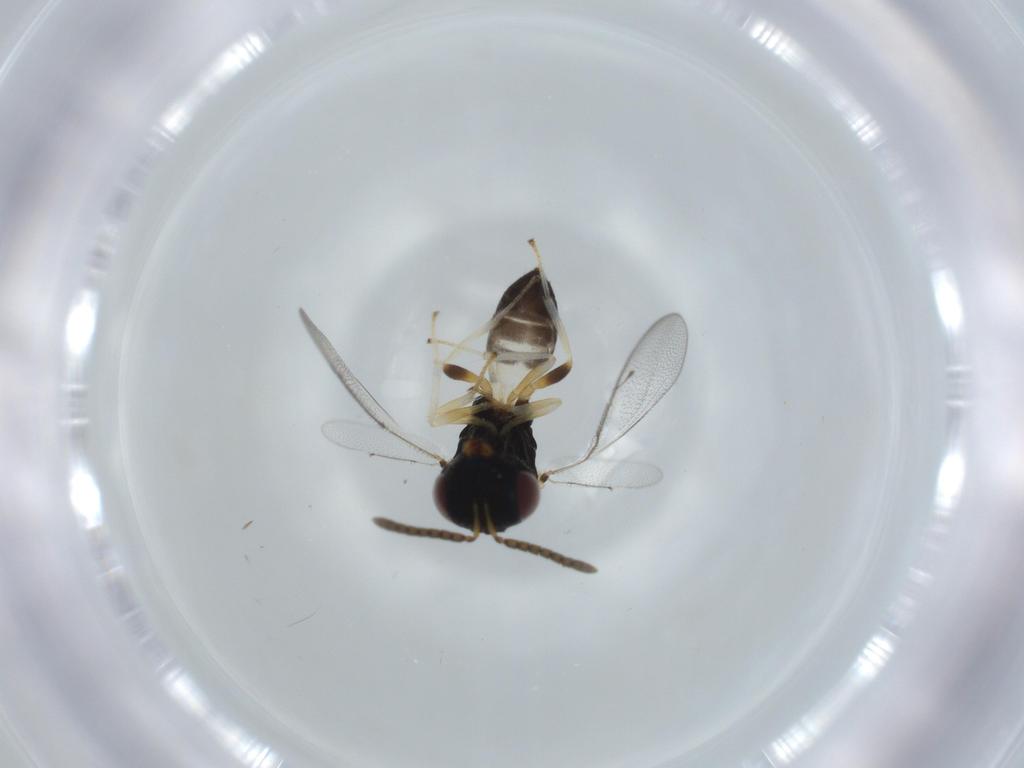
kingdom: Animalia
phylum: Arthropoda
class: Insecta
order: Hymenoptera
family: Pteromalidae
